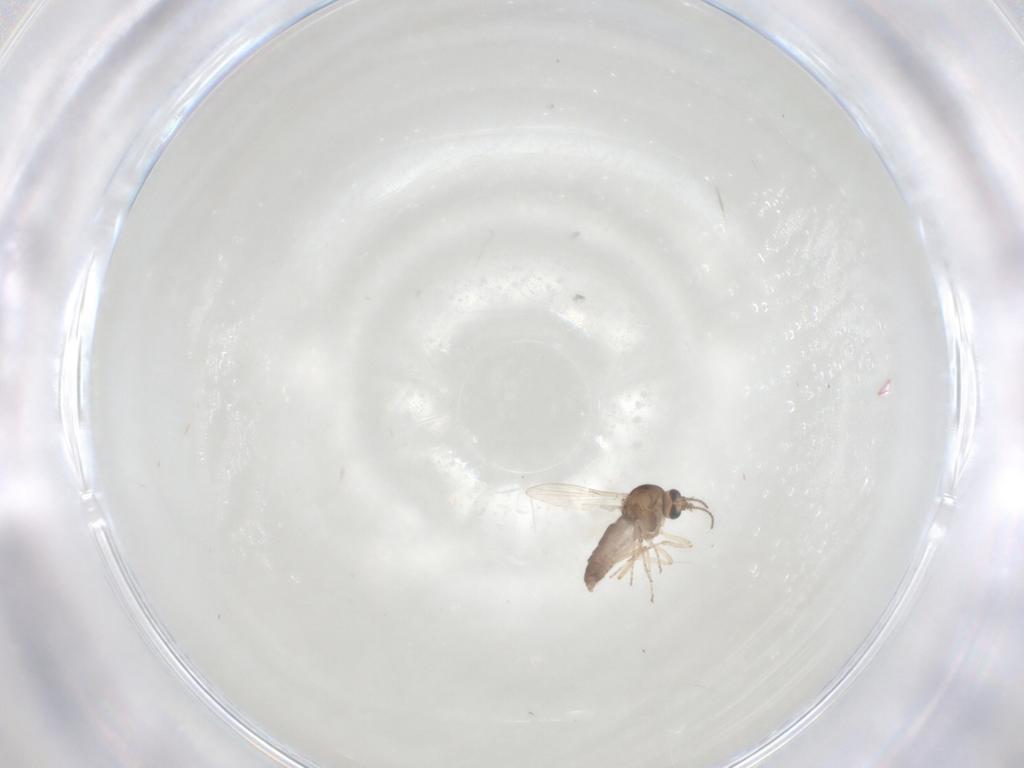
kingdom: Animalia
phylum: Arthropoda
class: Insecta
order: Diptera
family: Ceratopogonidae
